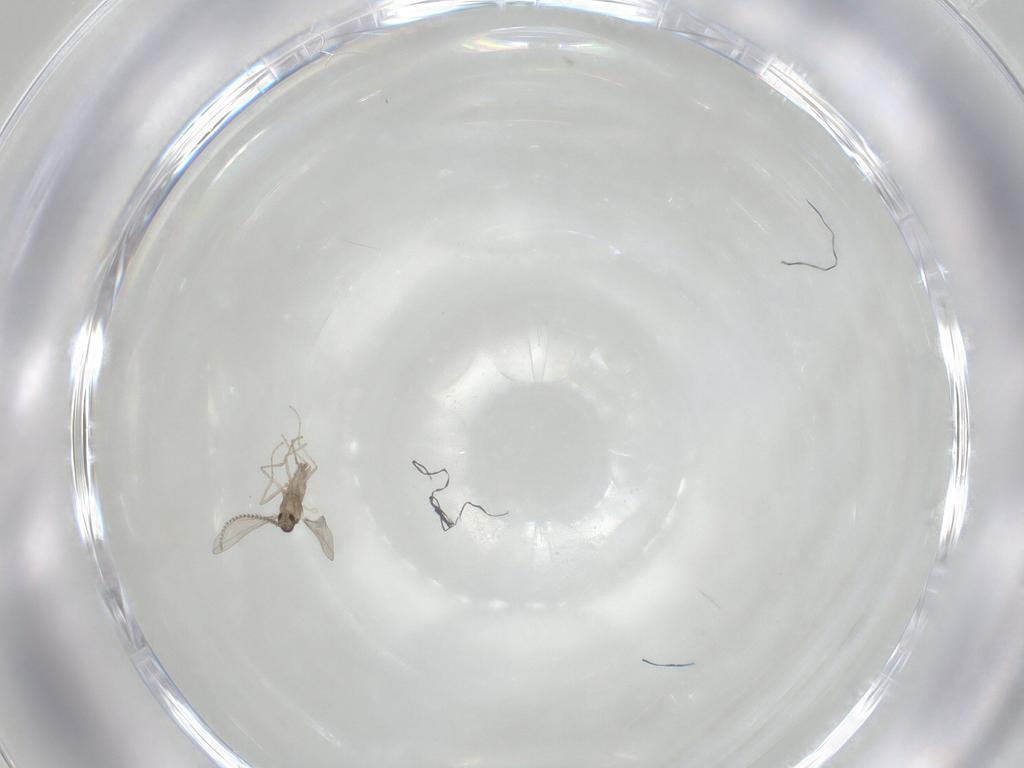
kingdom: Animalia
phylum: Arthropoda
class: Insecta
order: Diptera
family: Cecidomyiidae
